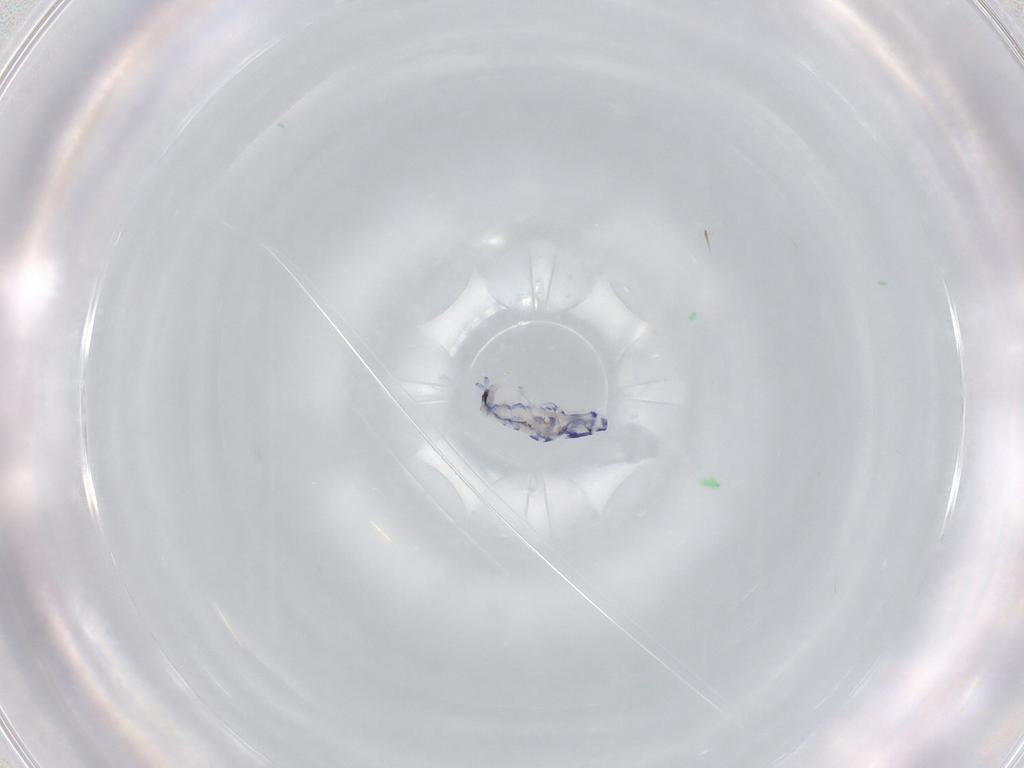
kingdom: Animalia
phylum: Arthropoda
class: Collembola
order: Entomobryomorpha
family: Entomobryidae
